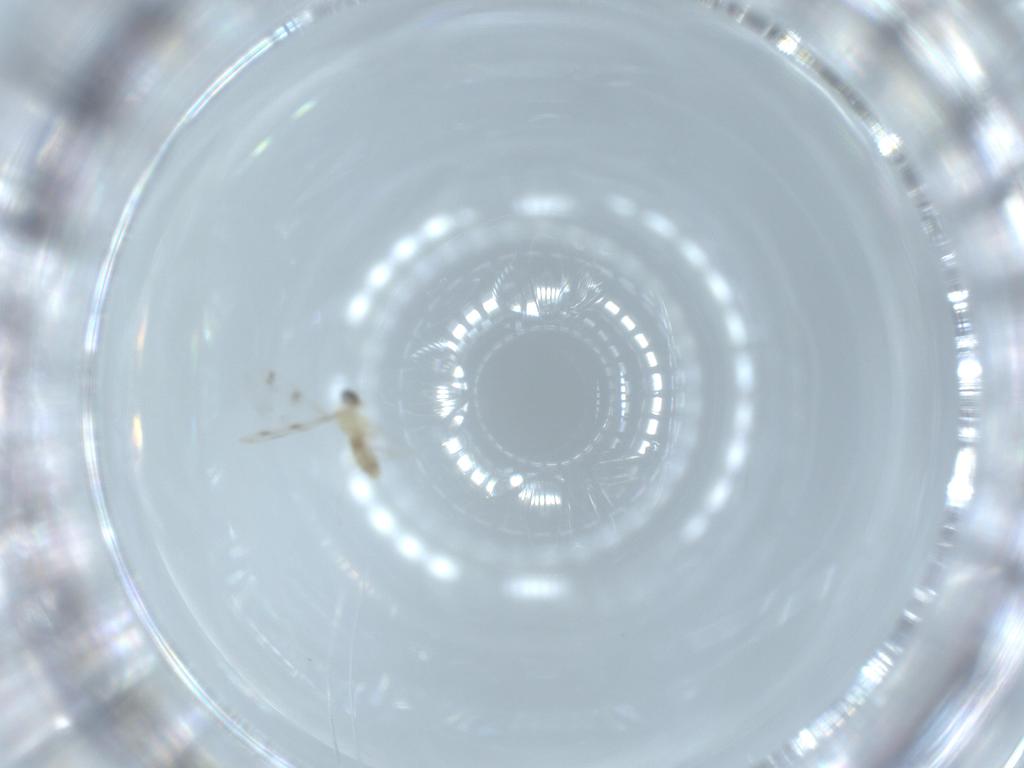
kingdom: Animalia
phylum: Arthropoda
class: Insecta
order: Diptera
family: Cecidomyiidae
